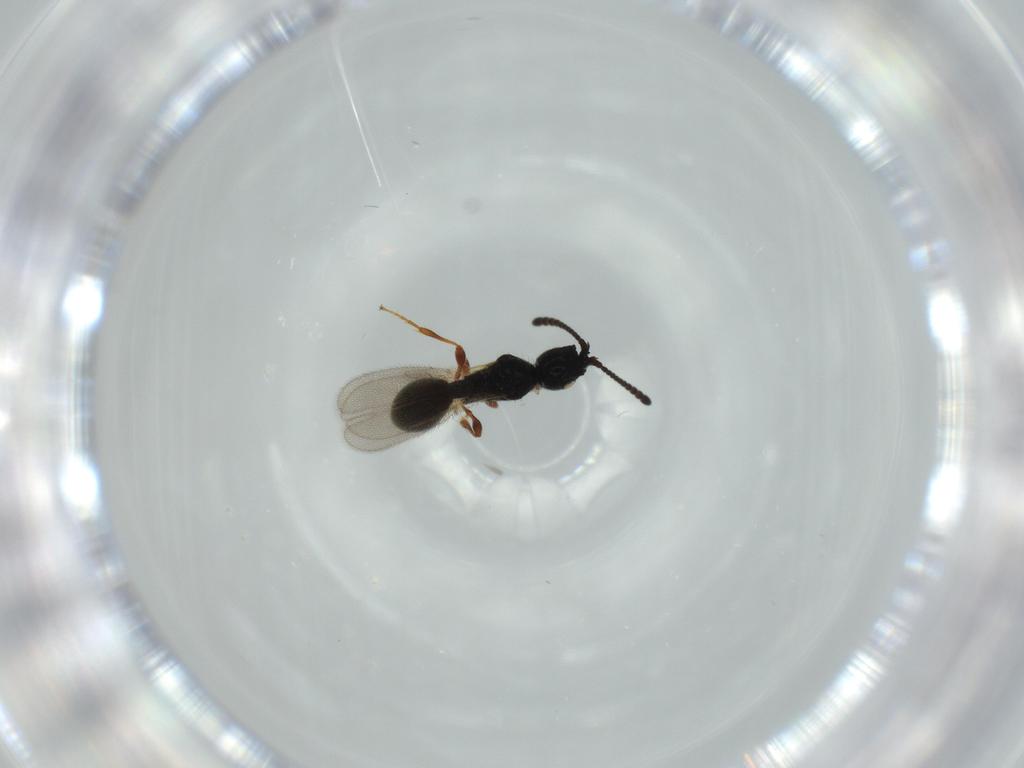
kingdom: Animalia
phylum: Arthropoda
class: Insecta
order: Hymenoptera
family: Diapriidae
